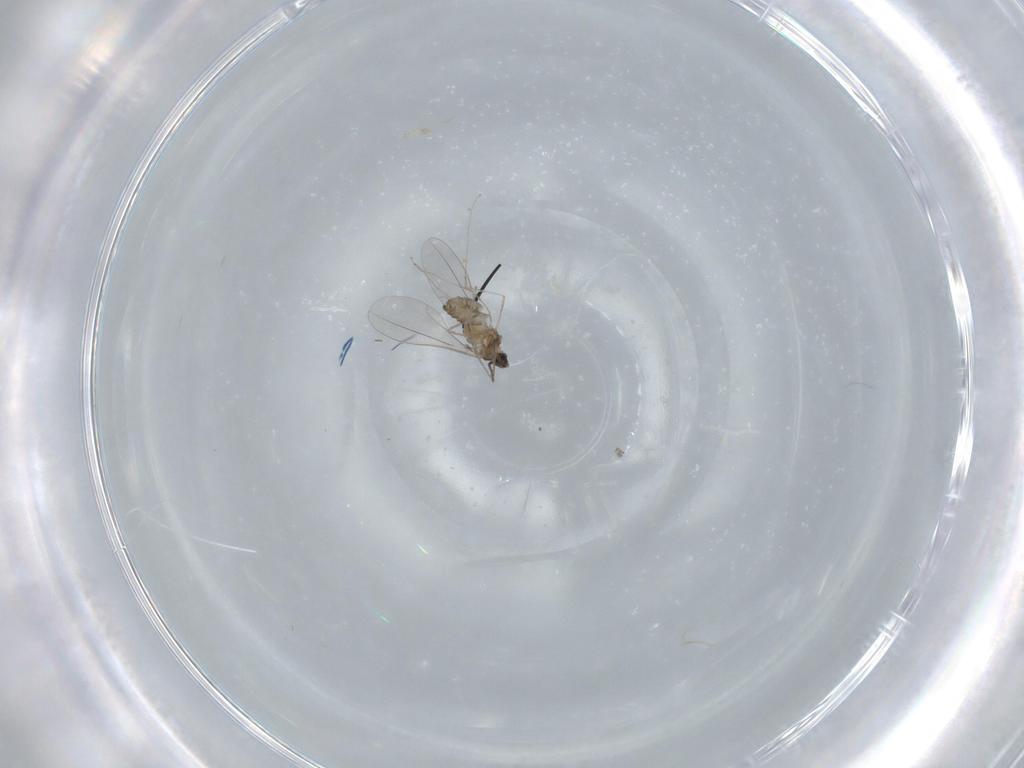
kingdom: Animalia
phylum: Arthropoda
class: Insecta
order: Diptera
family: Cecidomyiidae
